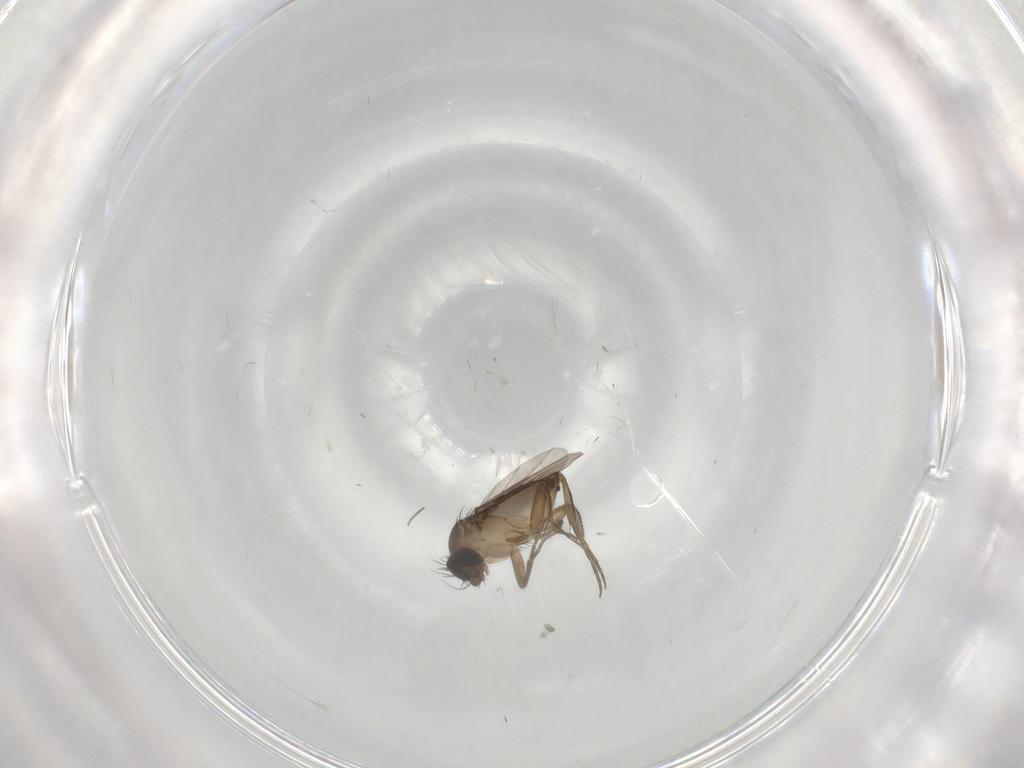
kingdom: Animalia
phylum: Arthropoda
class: Insecta
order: Diptera
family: Phoridae
